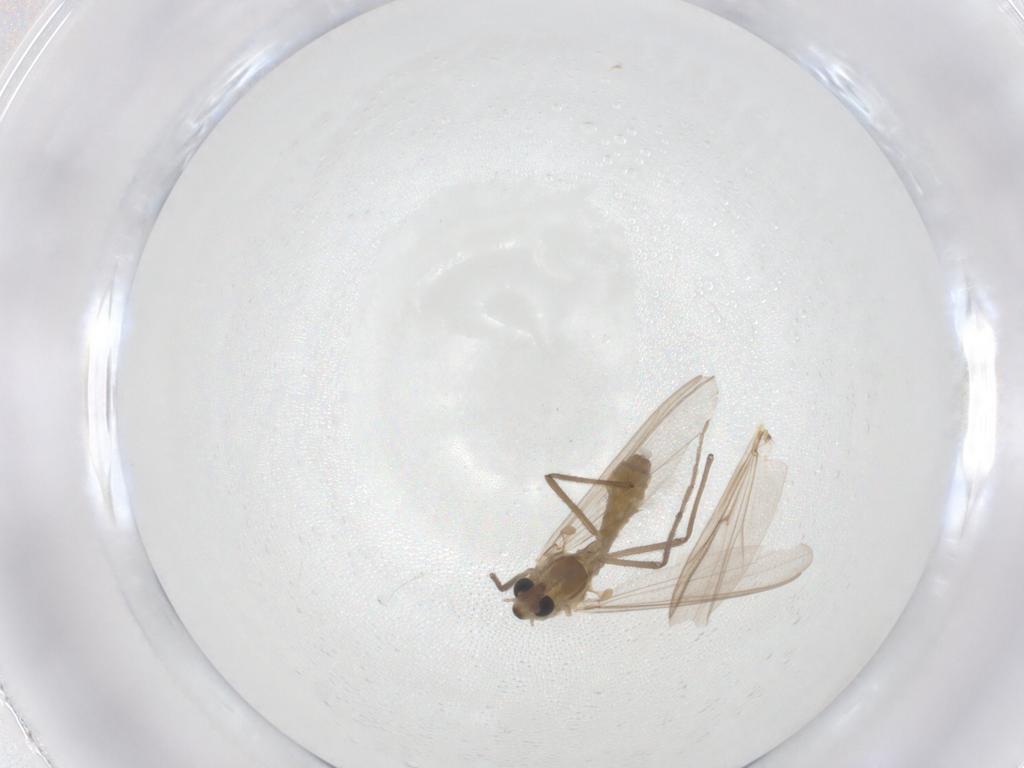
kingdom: Animalia
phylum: Arthropoda
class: Insecta
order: Diptera
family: Chironomidae
